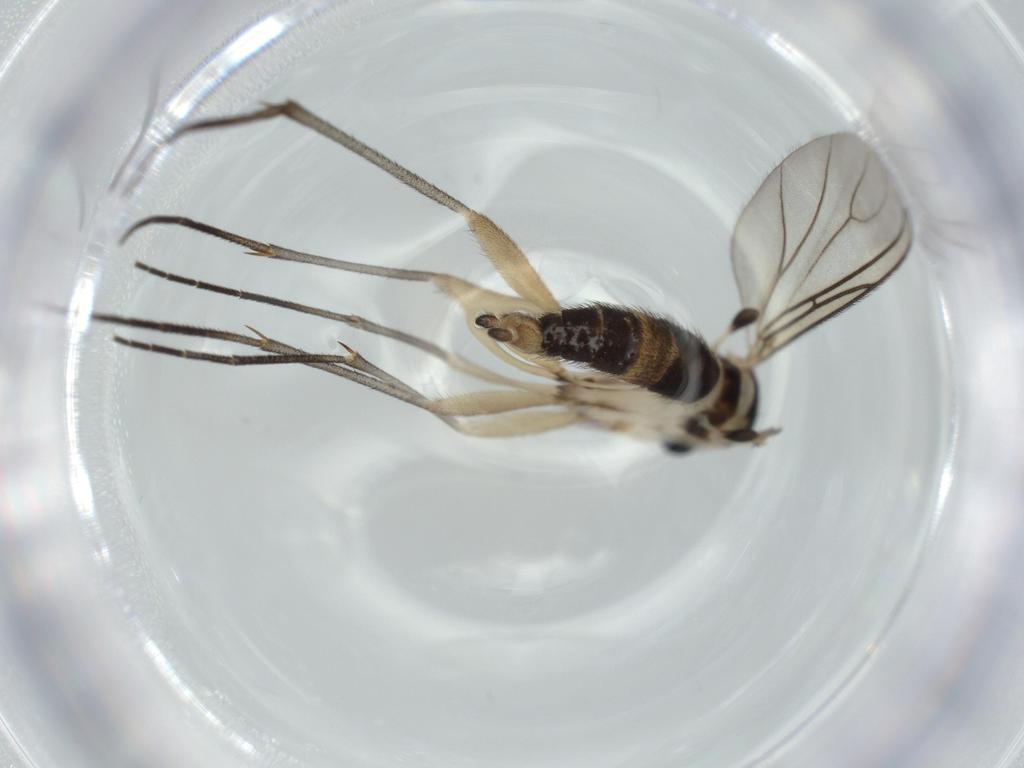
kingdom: Animalia
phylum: Arthropoda
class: Insecta
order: Diptera
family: Sciaridae
